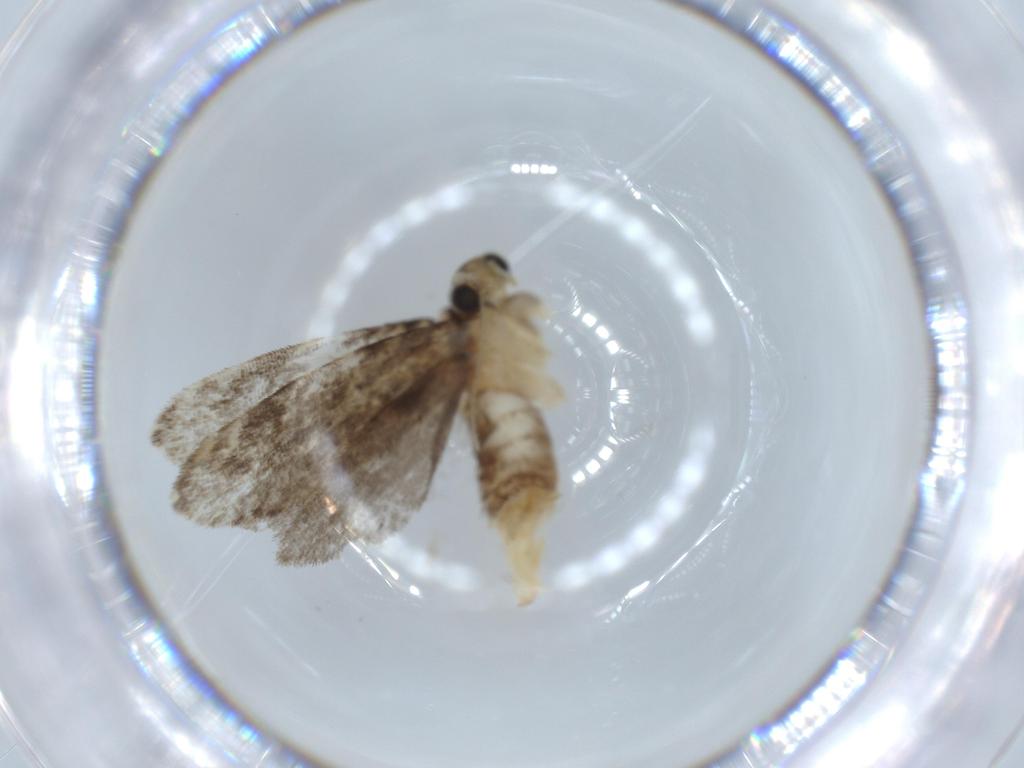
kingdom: Animalia
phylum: Arthropoda
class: Insecta
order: Lepidoptera
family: Tineidae
